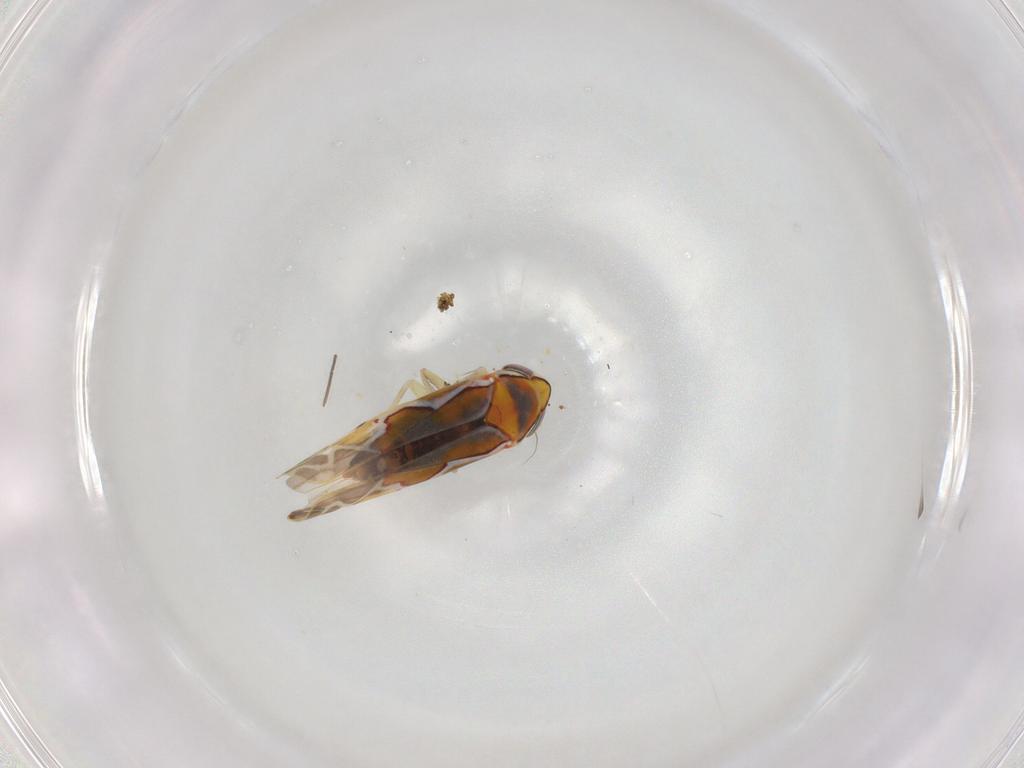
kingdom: Animalia
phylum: Arthropoda
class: Insecta
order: Hemiptera
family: Cicadellidae
